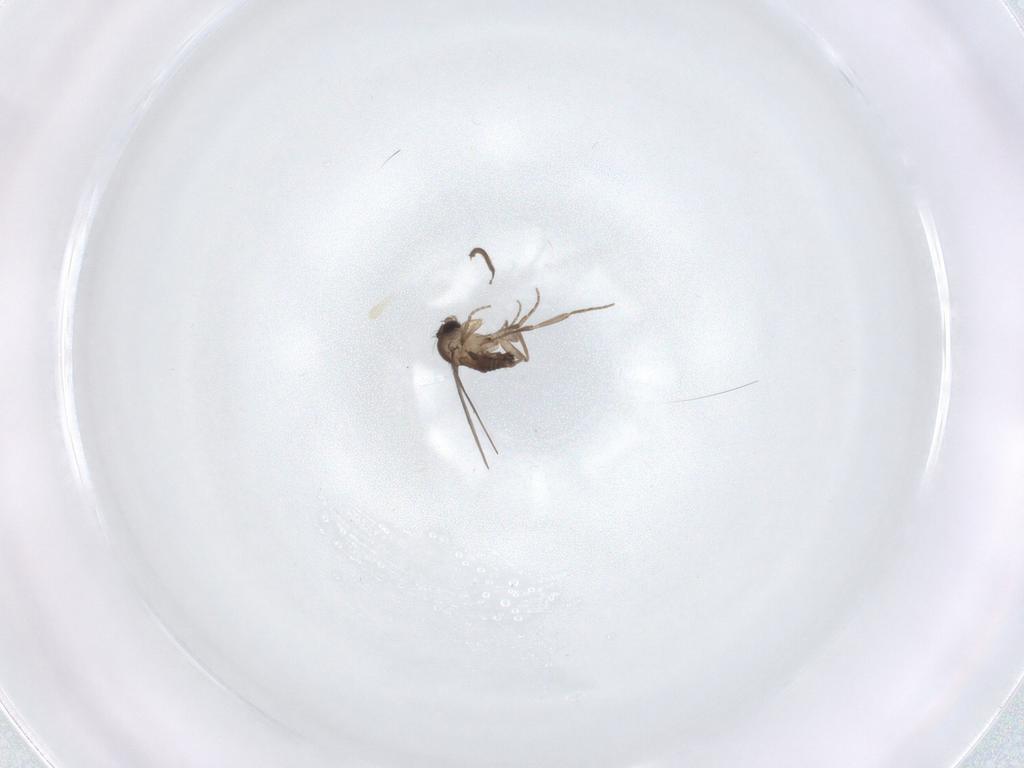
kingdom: Animalia
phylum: Arthropoda
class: Insecta
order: Diptera
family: Phoridae
